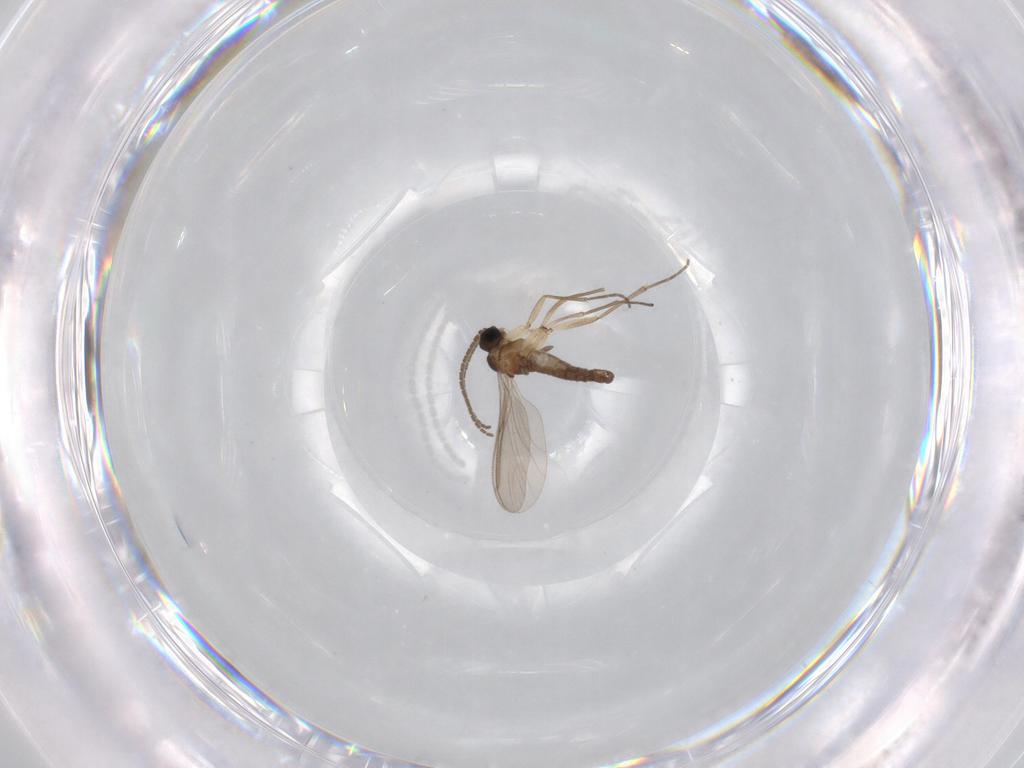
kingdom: Animalia
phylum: Arthropoda
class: Insecta
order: Diptera
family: Sciaridae
